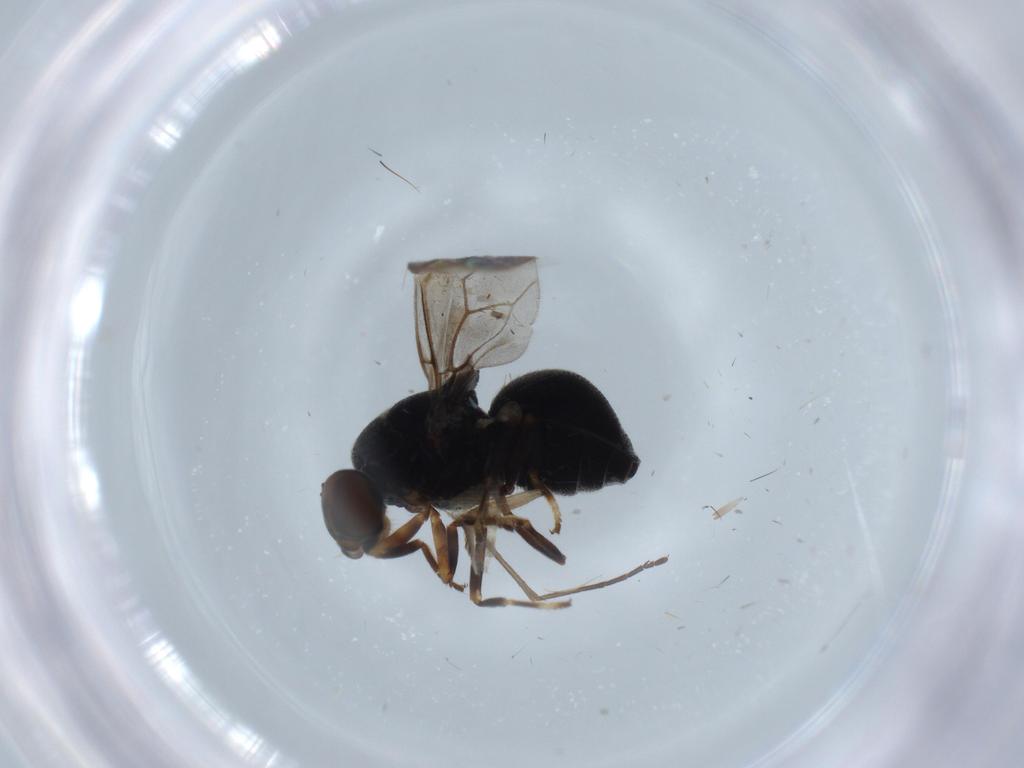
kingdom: Animalia
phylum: Arthropoda
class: Insecta
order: Diptera
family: Stratiomyidae
